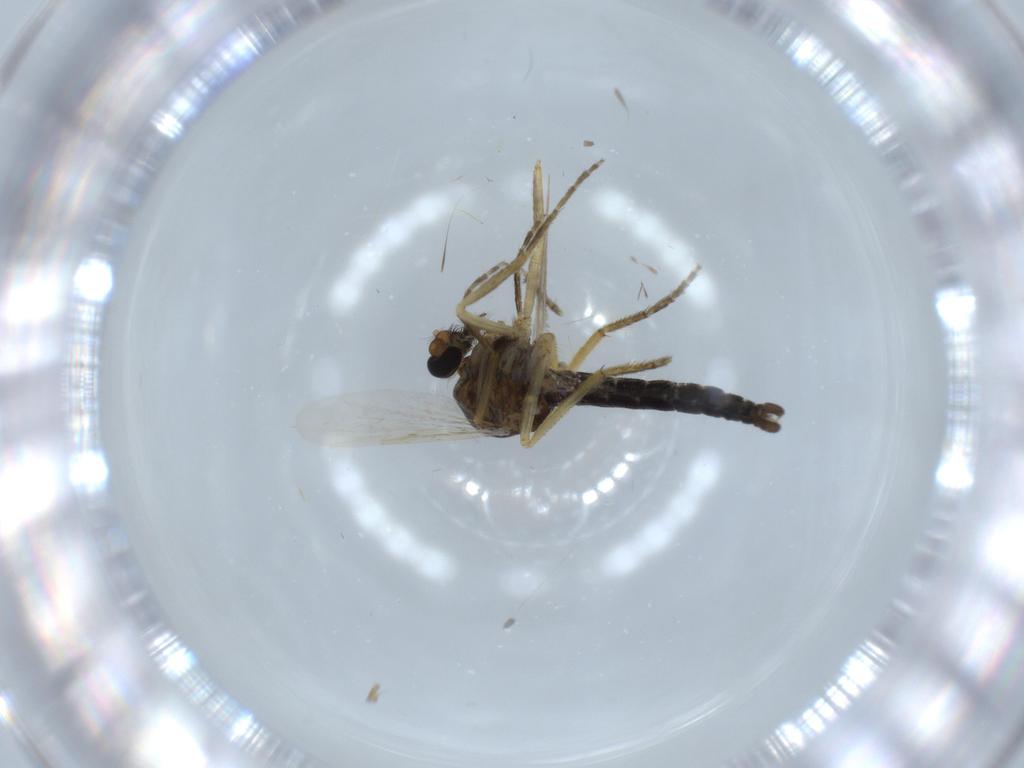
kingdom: Animalia
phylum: Arthropoda
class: Insecta
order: Diptera
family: Ceratopogonidae
